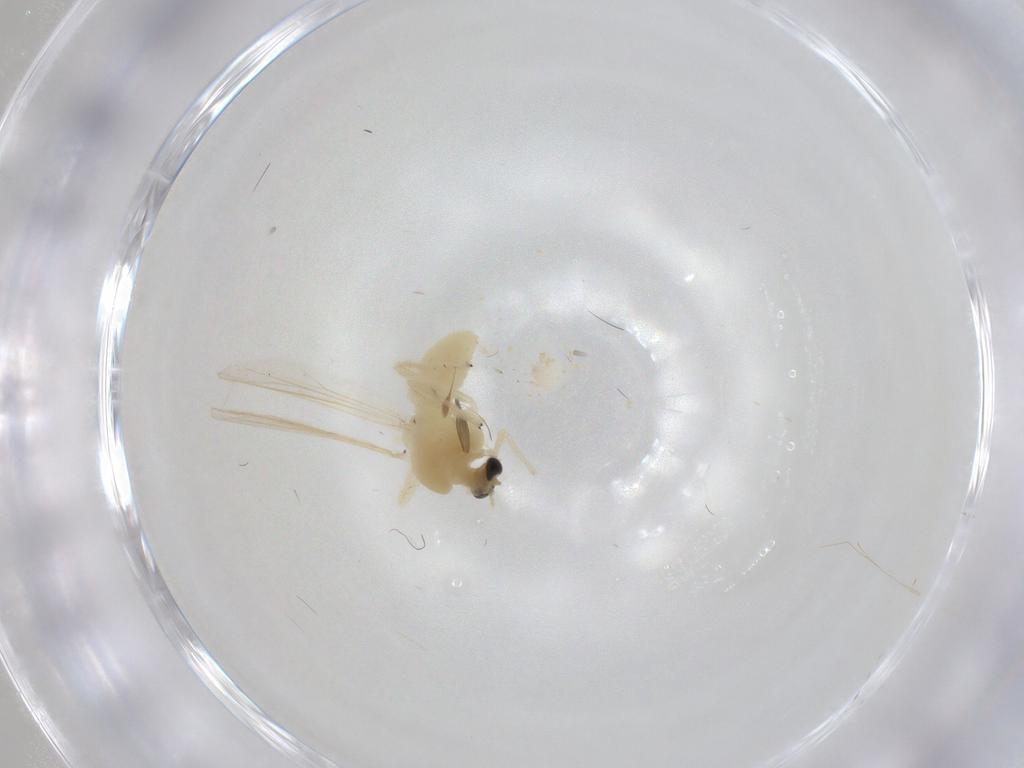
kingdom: Animalia
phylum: Arthropoda
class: Insecta
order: Diptera
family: Chironomidae
